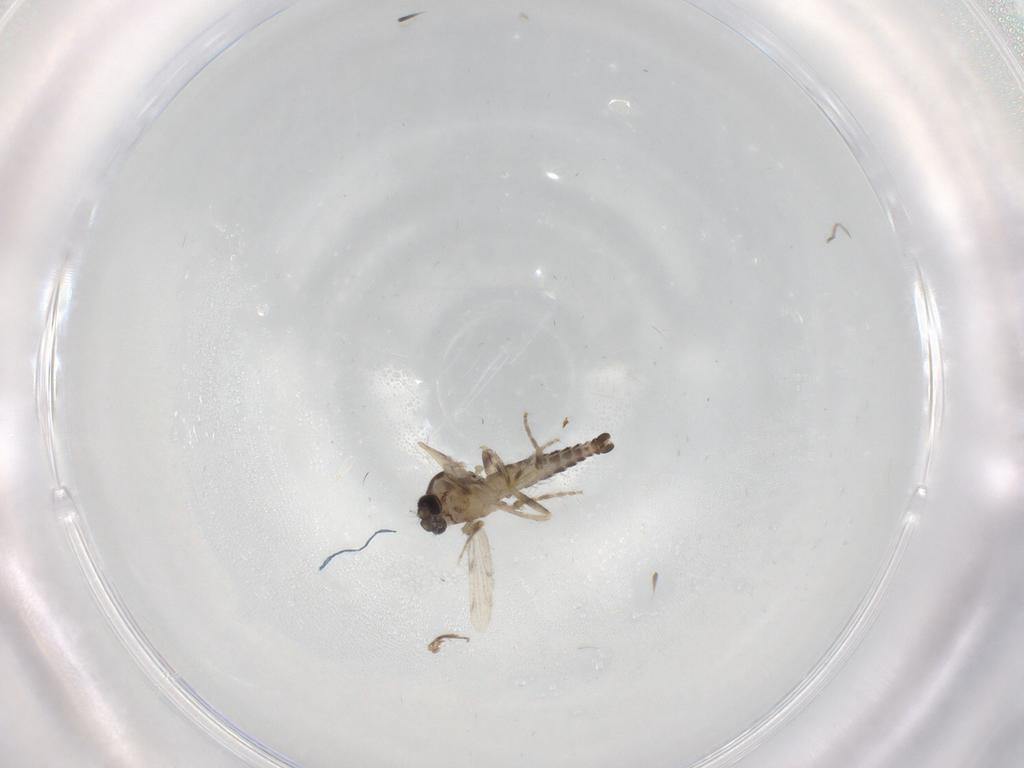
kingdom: Animalia
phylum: Arthropoda
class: Insecta
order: Diptera
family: Ceratopogonidae
